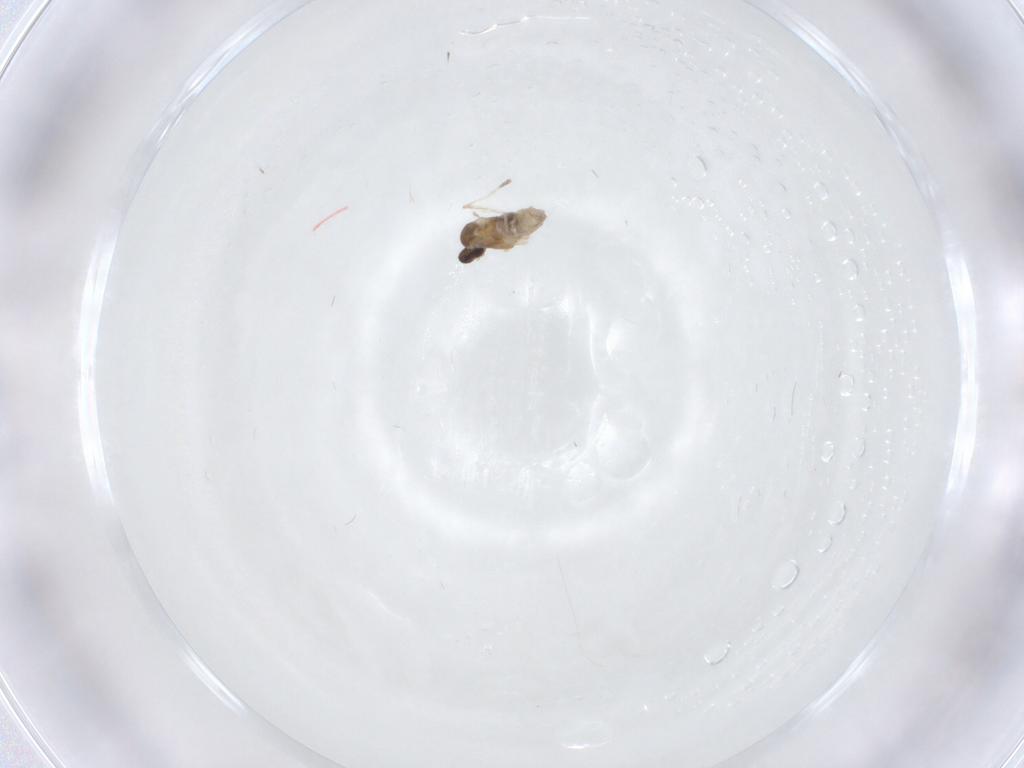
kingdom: Animalia
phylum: Arthropoda
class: Insecta
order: Diptera
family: Cecidomyiidae
